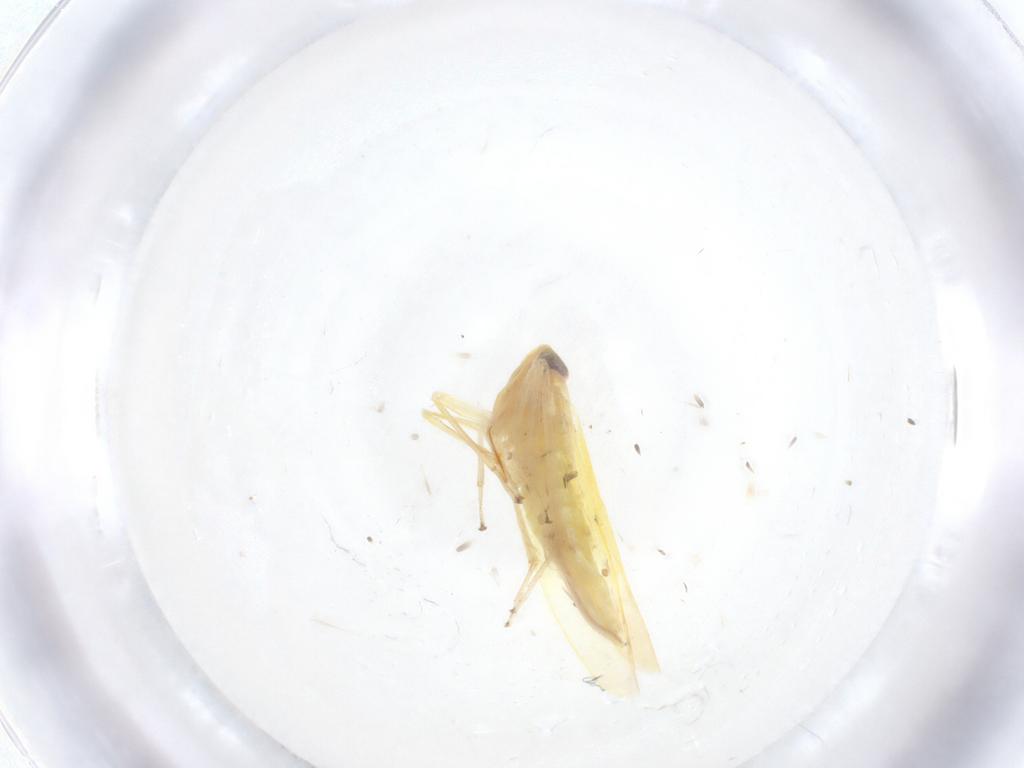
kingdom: Animalia
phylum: Arthropoda
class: Insecta
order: Hemiptera
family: Cicadellidae
